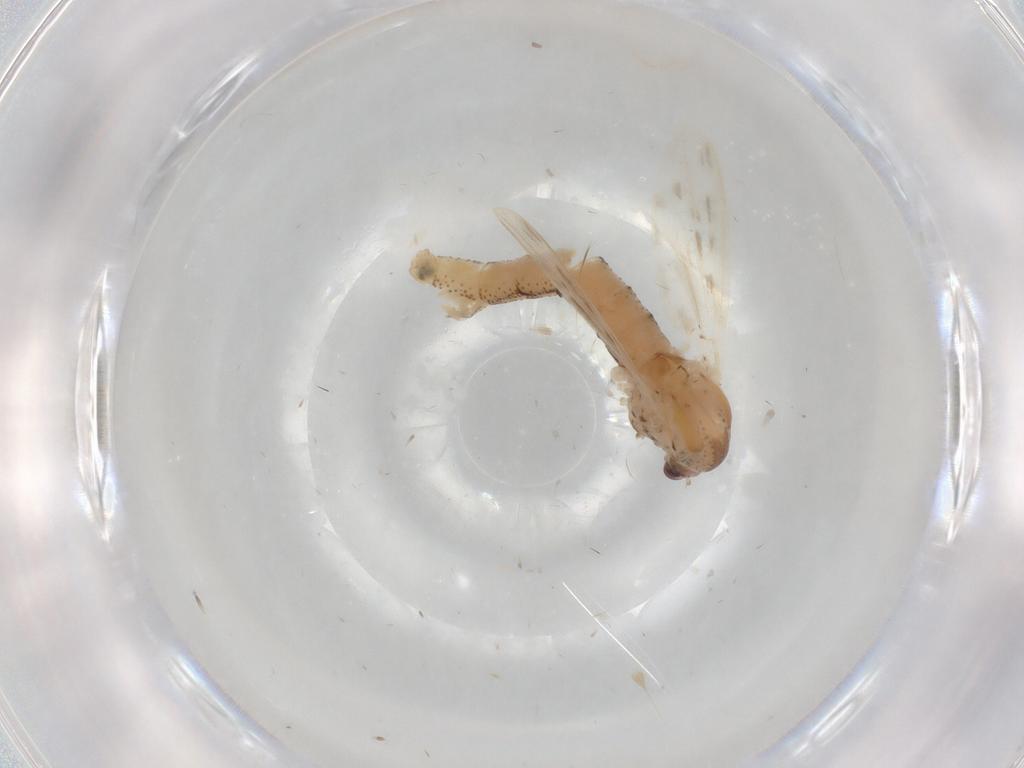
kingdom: Animalia
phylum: Arthropoda
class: Insecta
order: Diptera
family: Chaoboridae
